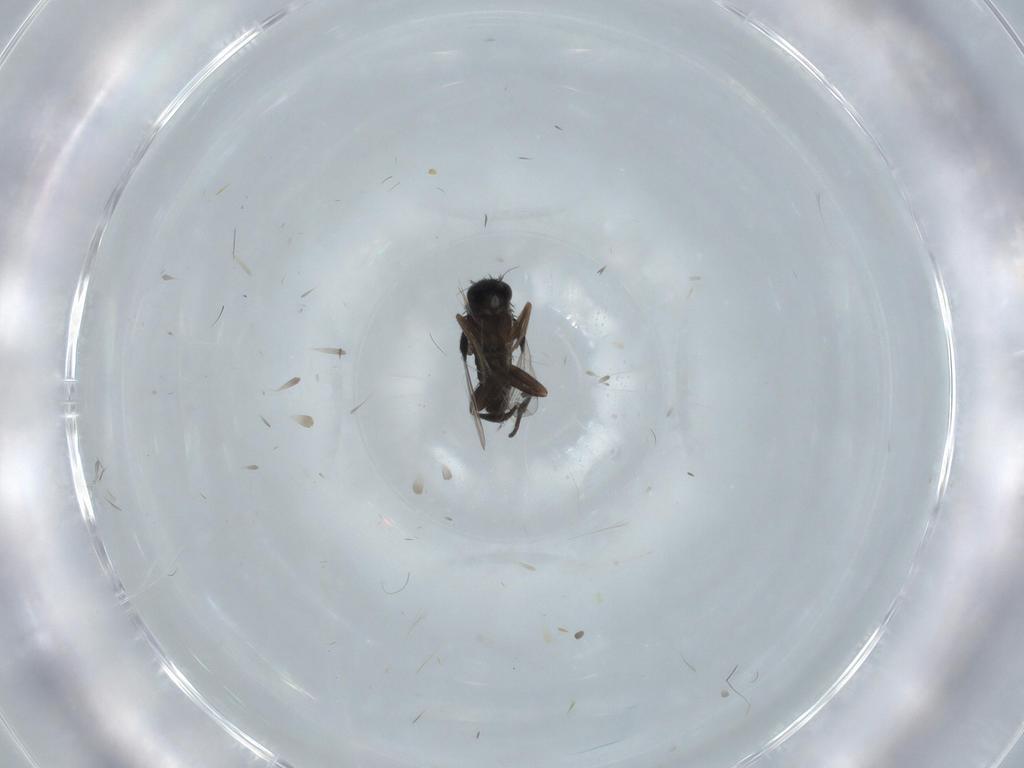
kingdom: Animalia
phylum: Arthropoda
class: Insecta
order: Diptera
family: Phoridae
